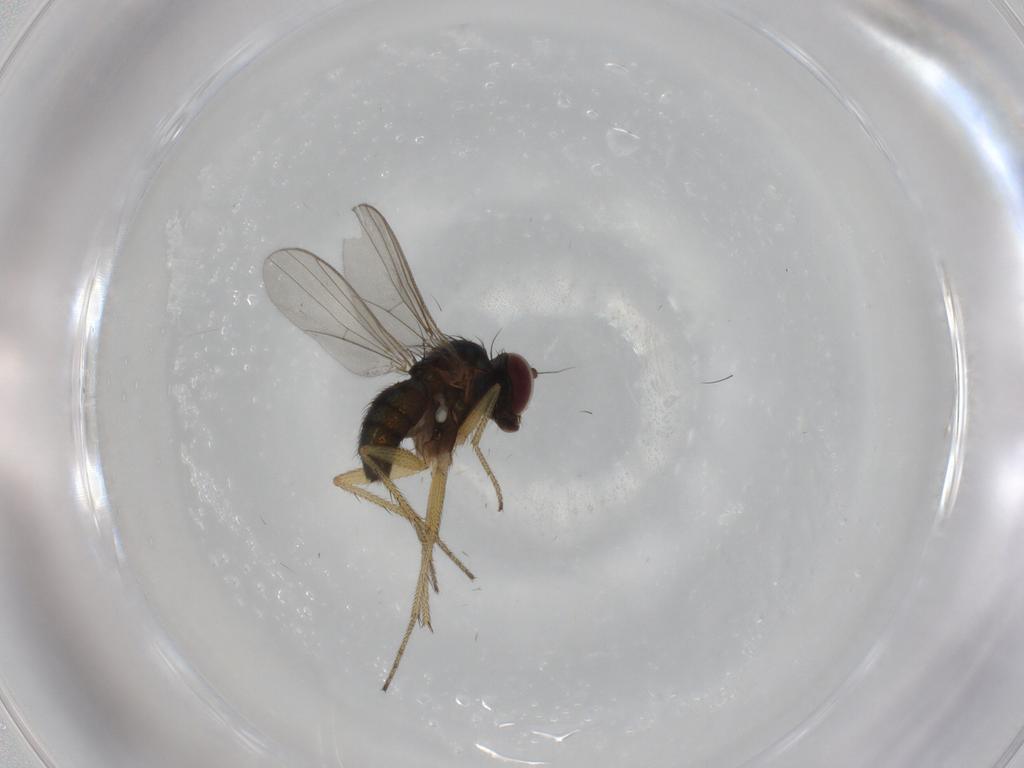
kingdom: Animalia
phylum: Arthropoda
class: Insecta
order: Diptera
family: Dolichopodidae
